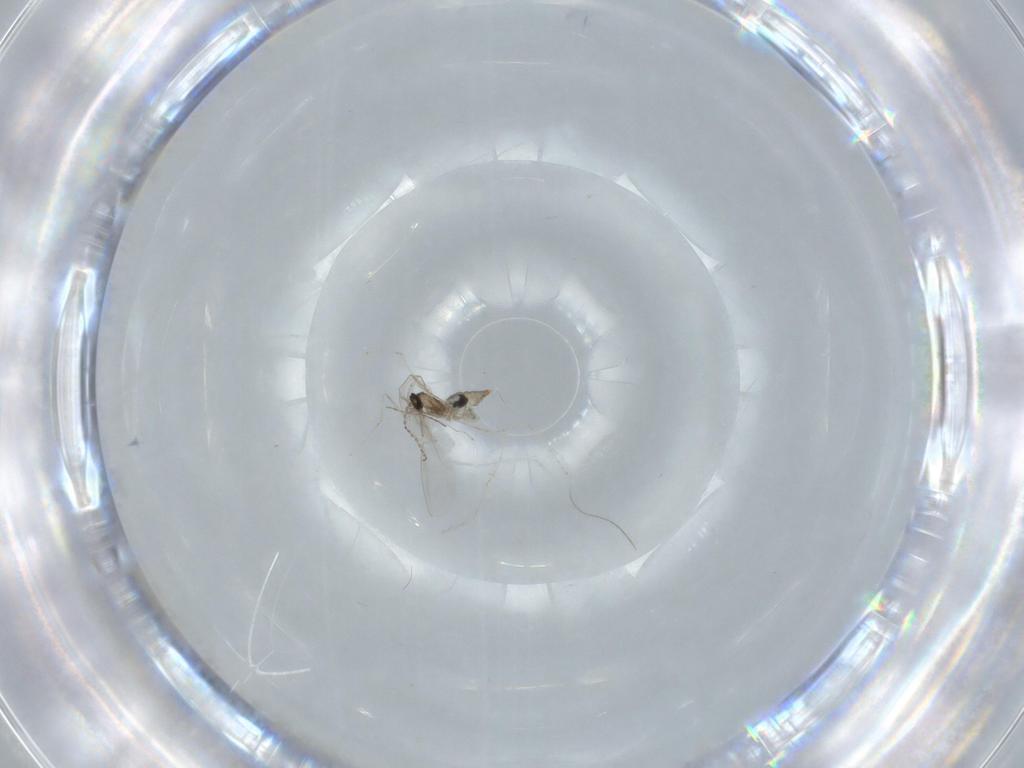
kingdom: Animalia
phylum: Arthropoda
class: Insecta
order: Diptera
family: Cecidomyiidae
